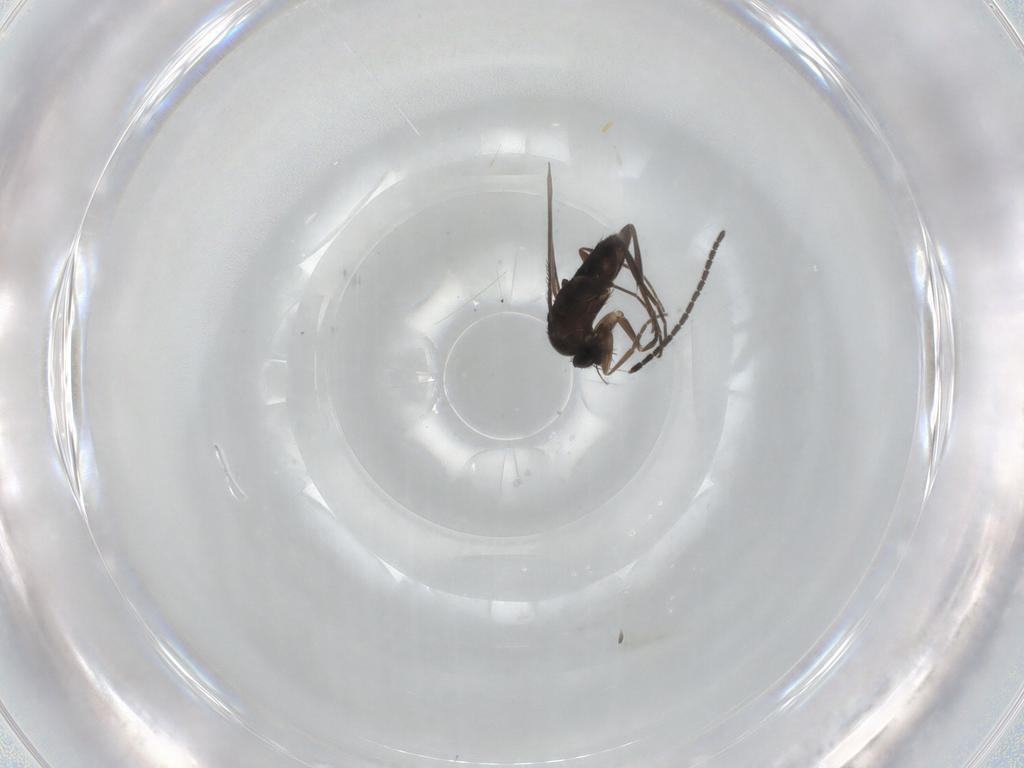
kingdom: Animalia
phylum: Arthropoda
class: Insecta
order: Diptera
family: Phoridae
